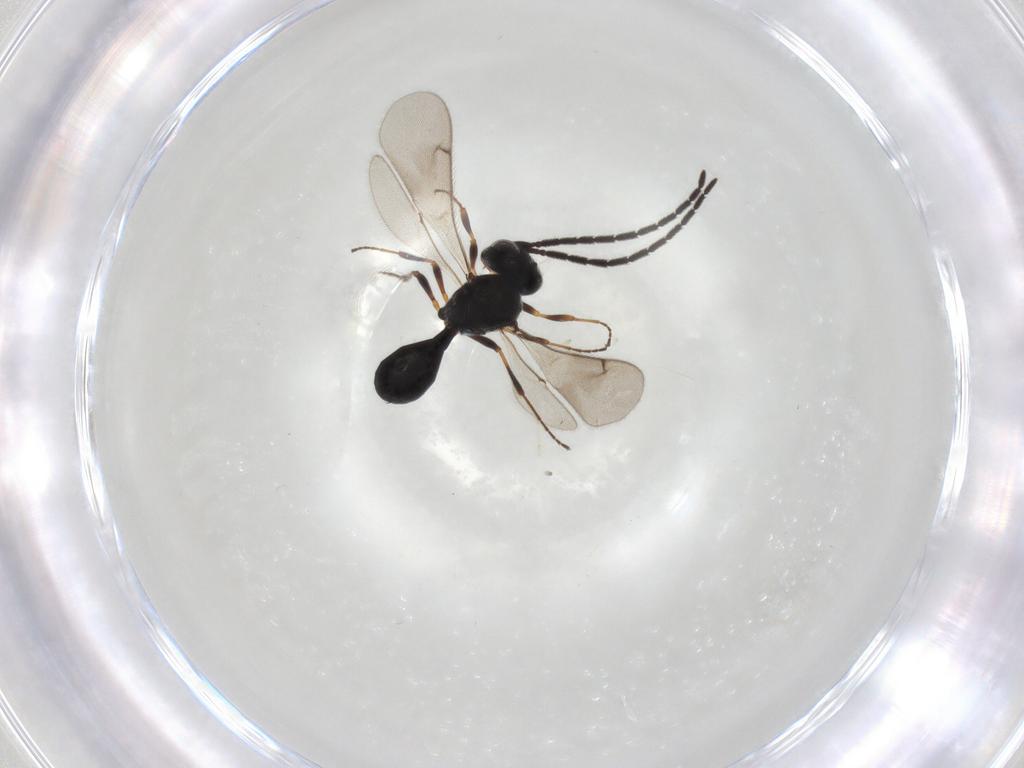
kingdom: Animalia
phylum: Arthropoda
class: Insecta
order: Hymenoptera
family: Scelionidae
